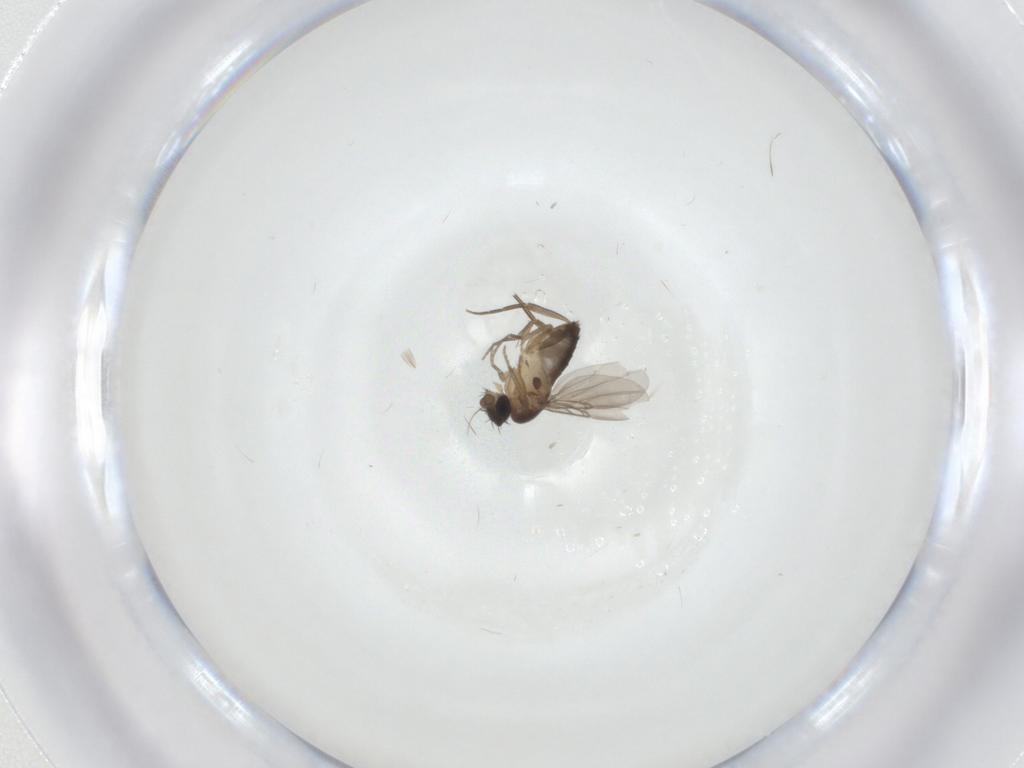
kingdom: Animalia
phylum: Arthropoda
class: Insecta
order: Diptera
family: Phoridae
